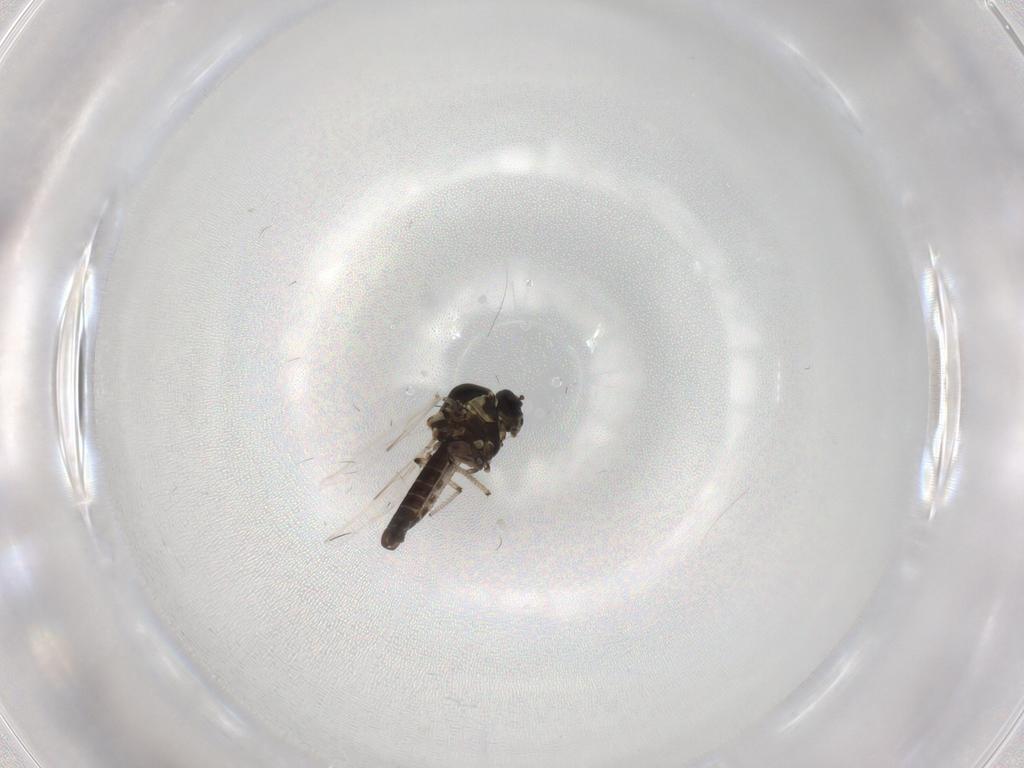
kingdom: Animalia
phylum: Arthropoda
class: Insecta
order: Diptera
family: Ceratopogonidae
